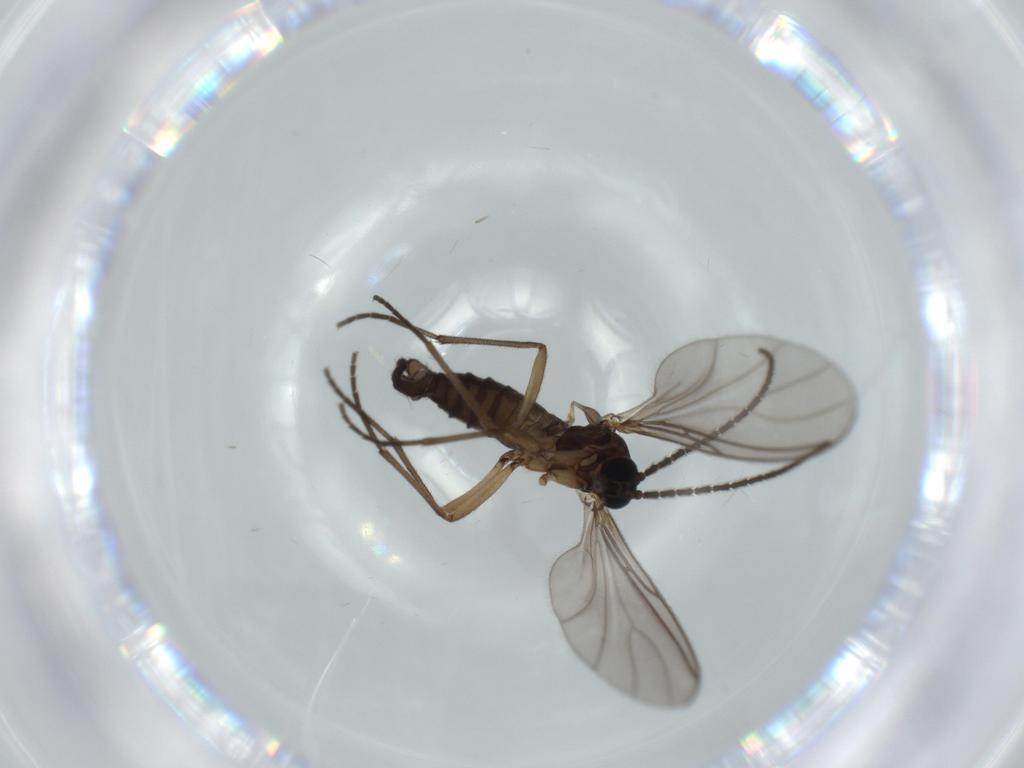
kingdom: Animalia
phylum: Arthropoda
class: Insecta
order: Diptera
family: Sciaridae
